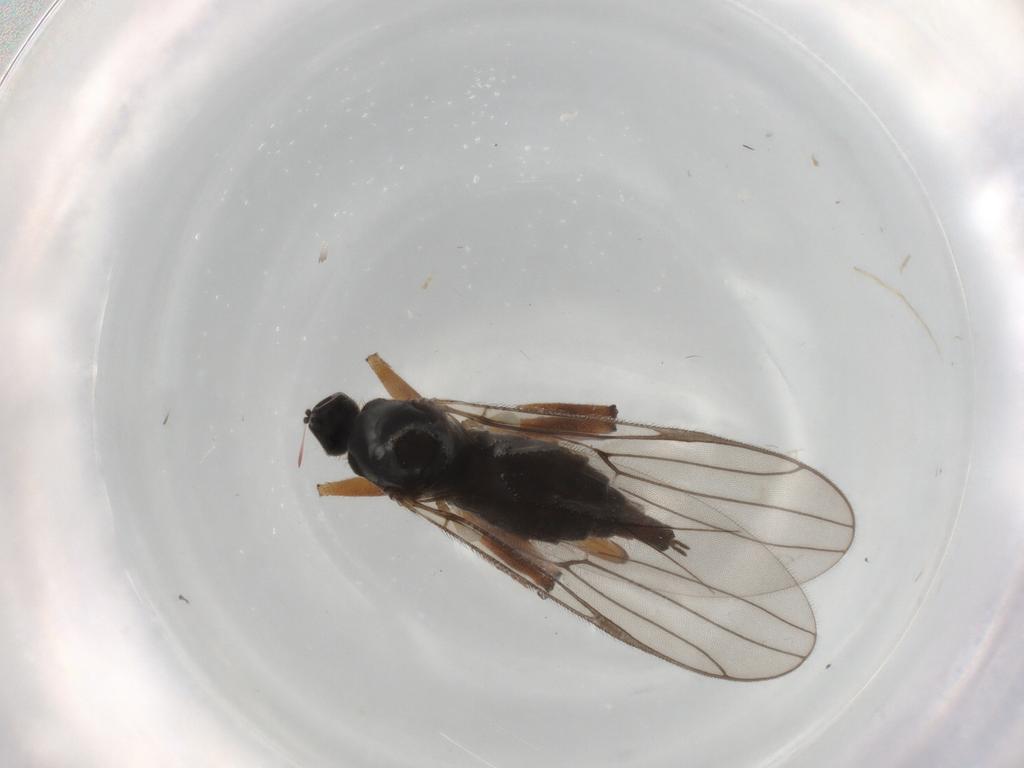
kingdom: Animalia
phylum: Arthropoda
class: Insecta
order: Diptera
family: Hybotidae
